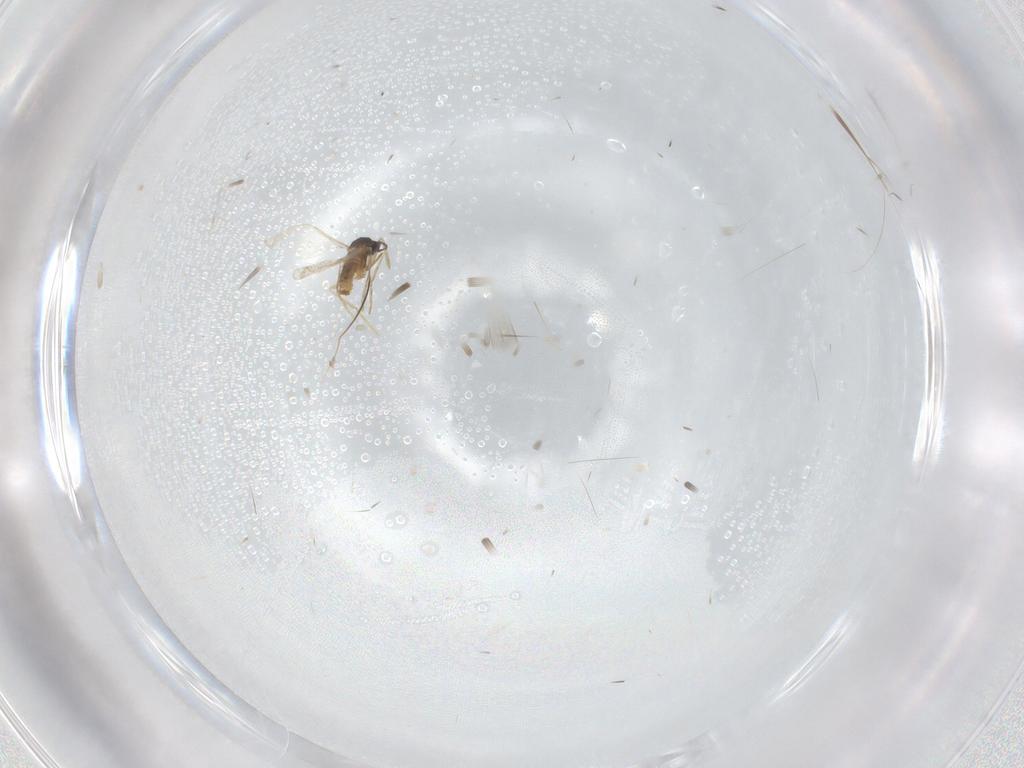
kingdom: Animalia
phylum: Arthropoda
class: Insecta
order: Diptera
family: Cecidomyiidae
